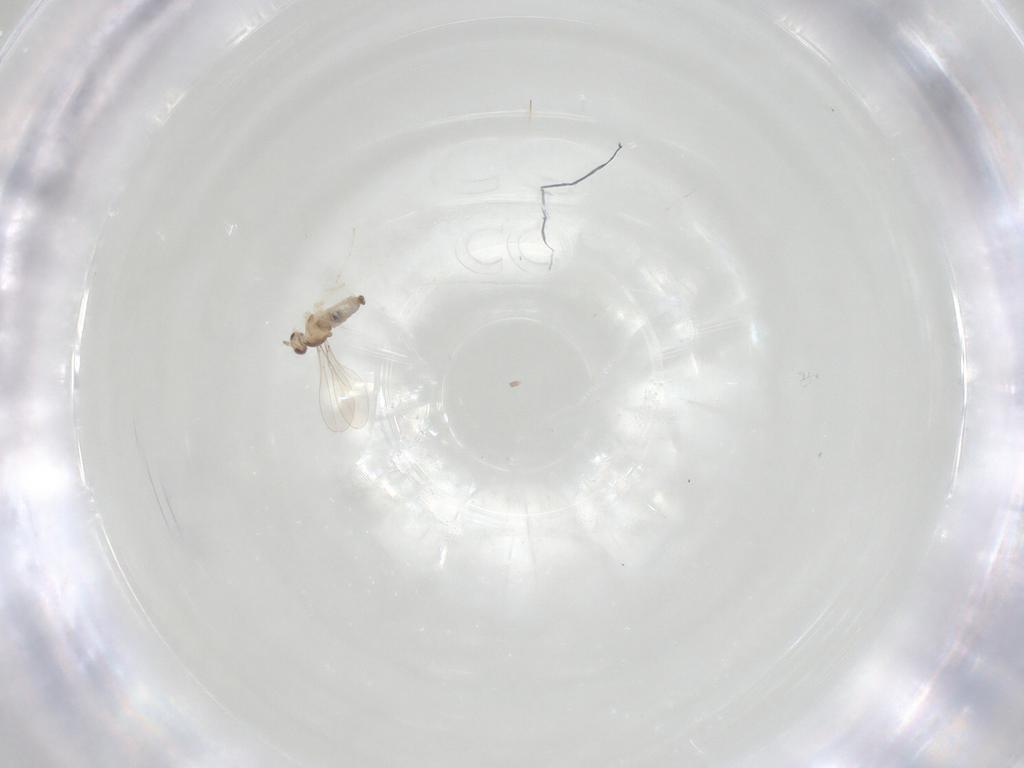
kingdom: Animalia
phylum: Arthropoda
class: Insecta
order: Diptera
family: Cecidomyiidae
